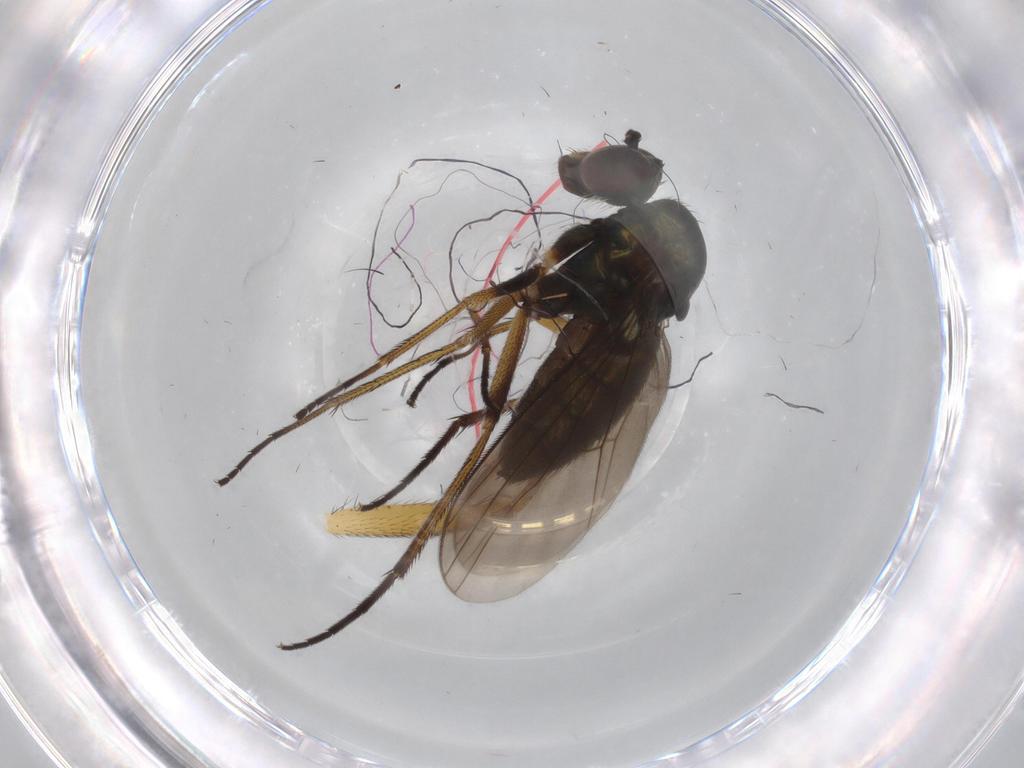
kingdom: Animalia
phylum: Arthropoda
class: Insecta
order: Diptera
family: Dolichopodidae
